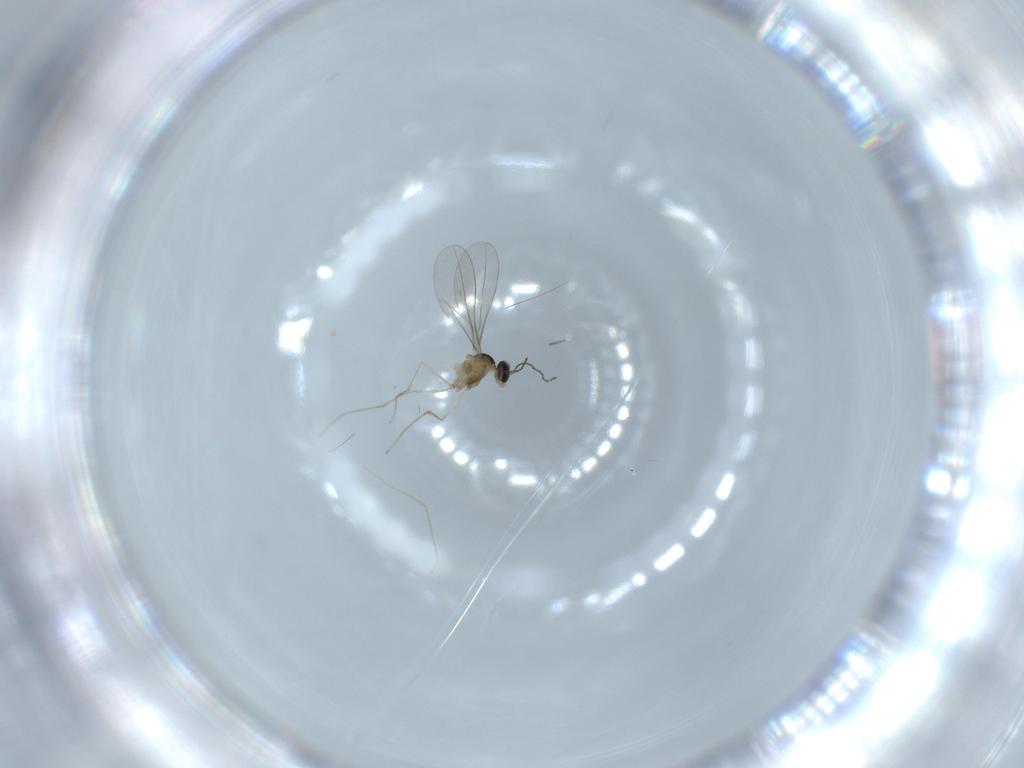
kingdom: Animalia
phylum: Arthropoda
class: Insecta
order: Diptera
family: Cecidomyiidae
